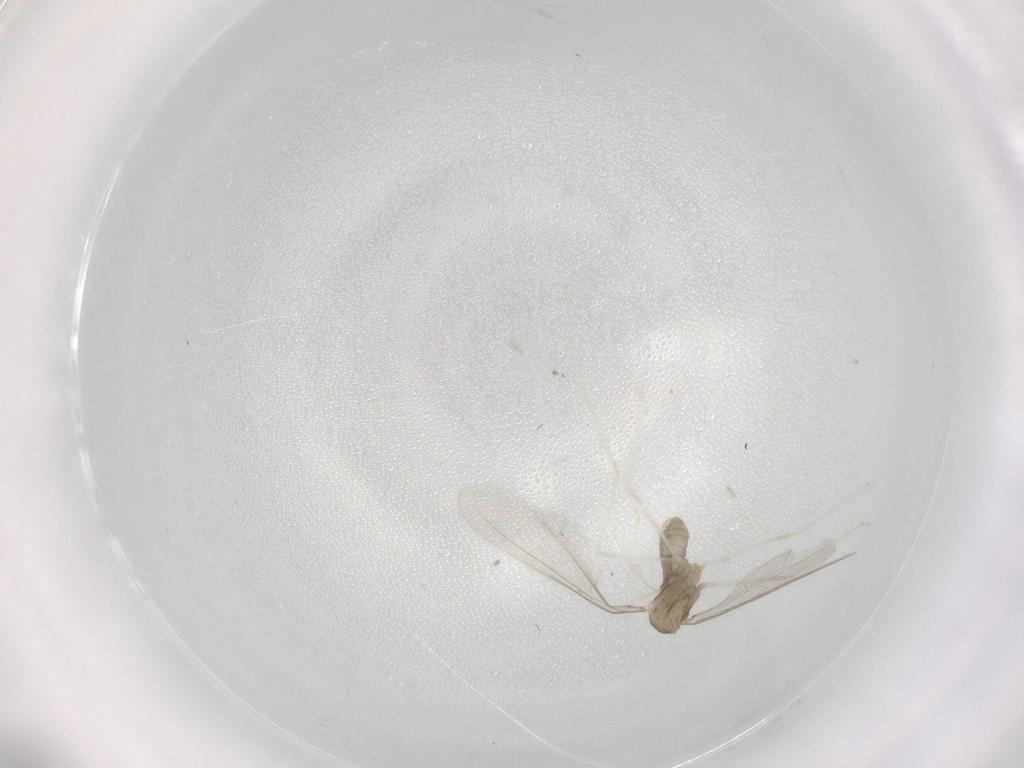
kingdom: Animalia
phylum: Arthropoda
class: Insecta
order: Diptera
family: Cecidomyiidae
